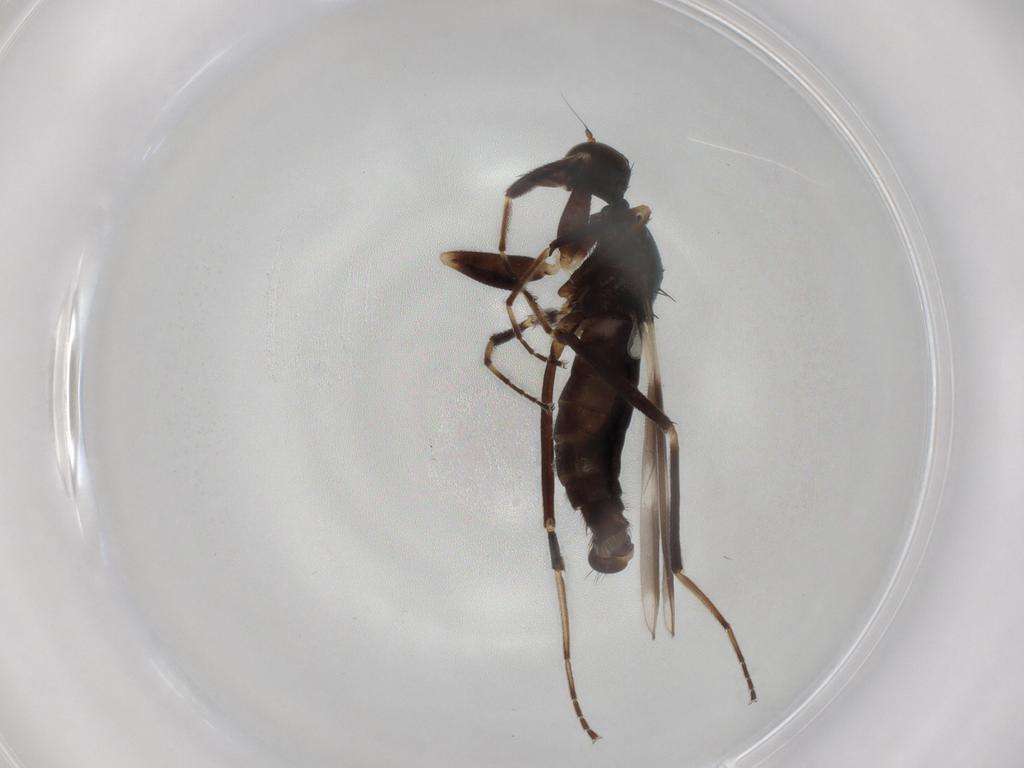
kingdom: Animalia
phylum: Arthropoda
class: Insecta
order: Diptera
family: Hybotidae
